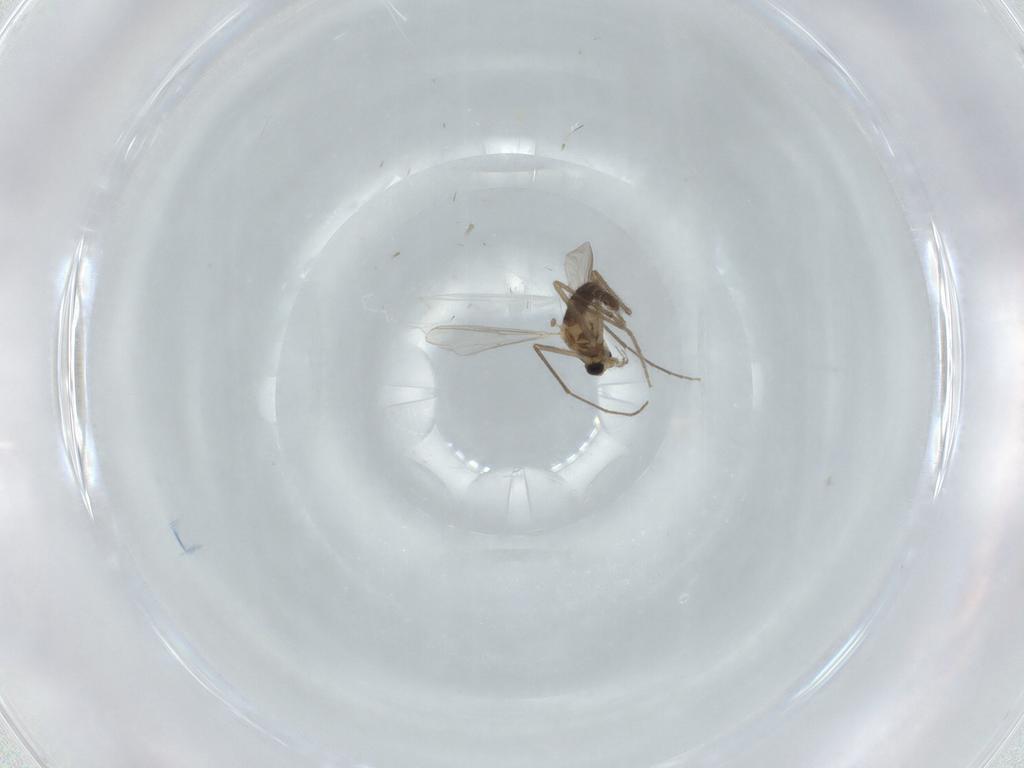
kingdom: Animalia
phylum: Arthropoda
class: Insecta
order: Diptera
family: Chironomidae
